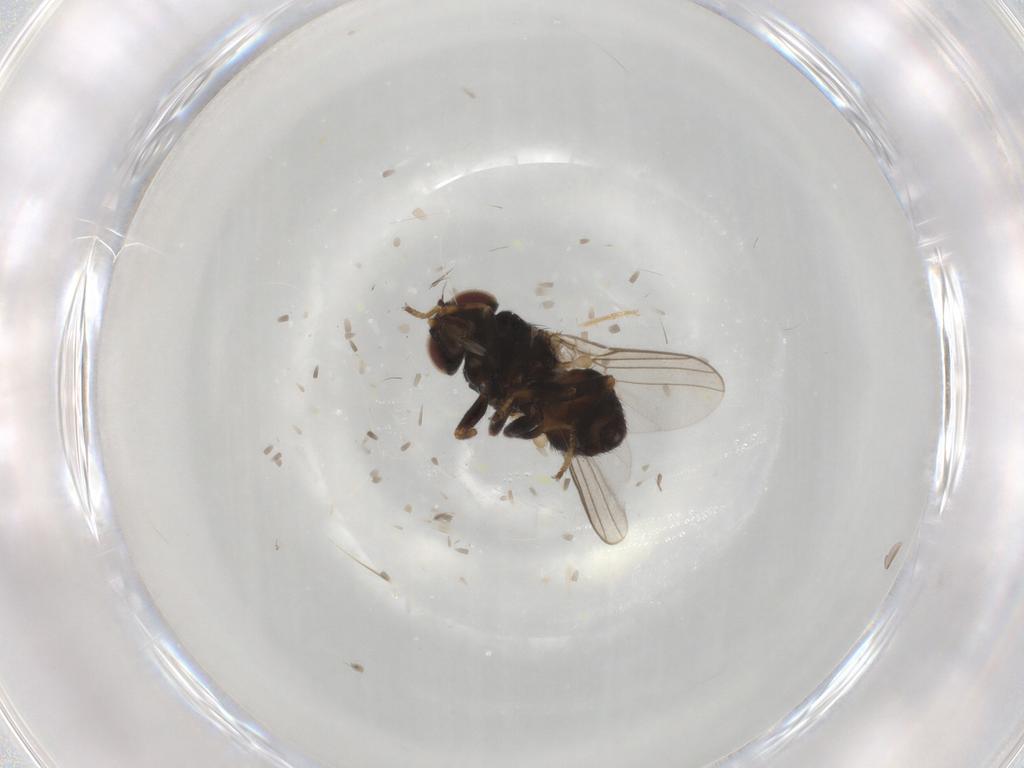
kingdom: Animalia
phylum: Arthropoda
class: Insecta
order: Diptera
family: Chloropidae
